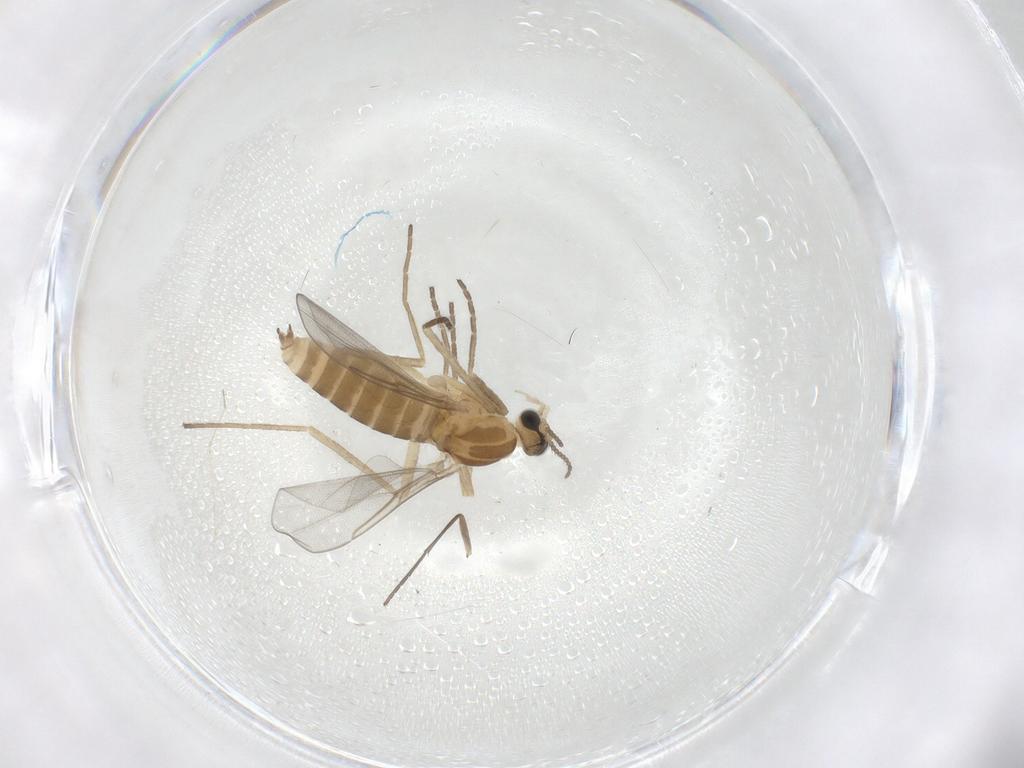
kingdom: Animalia
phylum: Arthropoda
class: Insecta
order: Diptera
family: Cecidomyiidae
